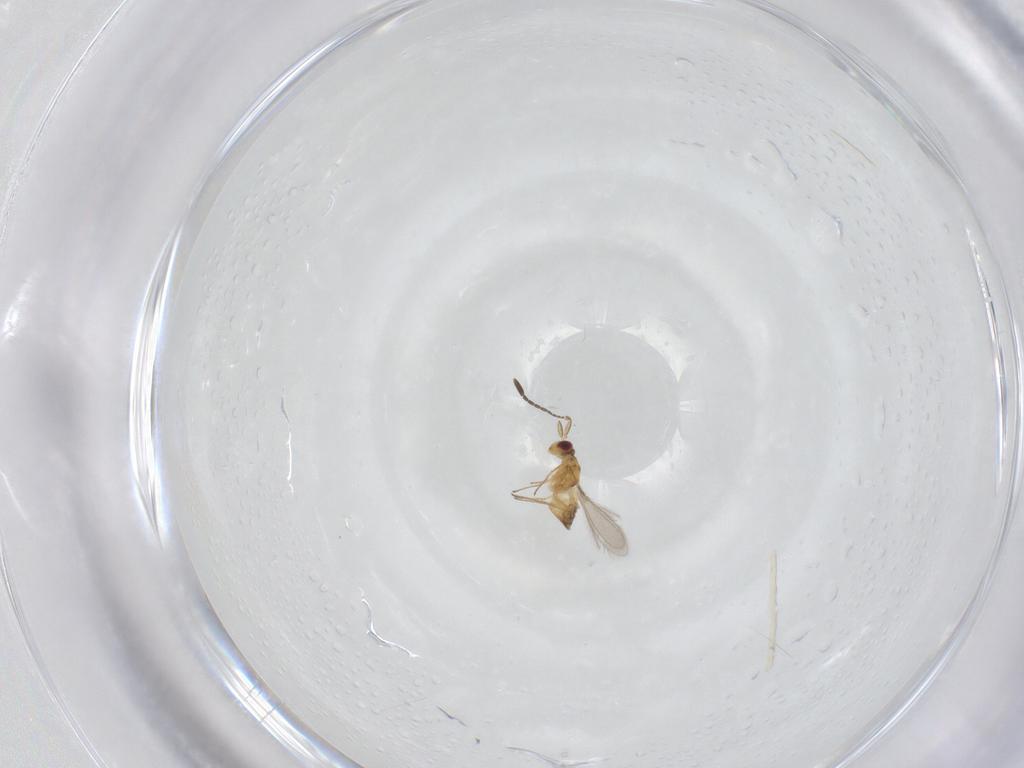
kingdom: Animalia
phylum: Arthropoda
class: Insecta
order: Hymenoptera
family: Mymaridae
